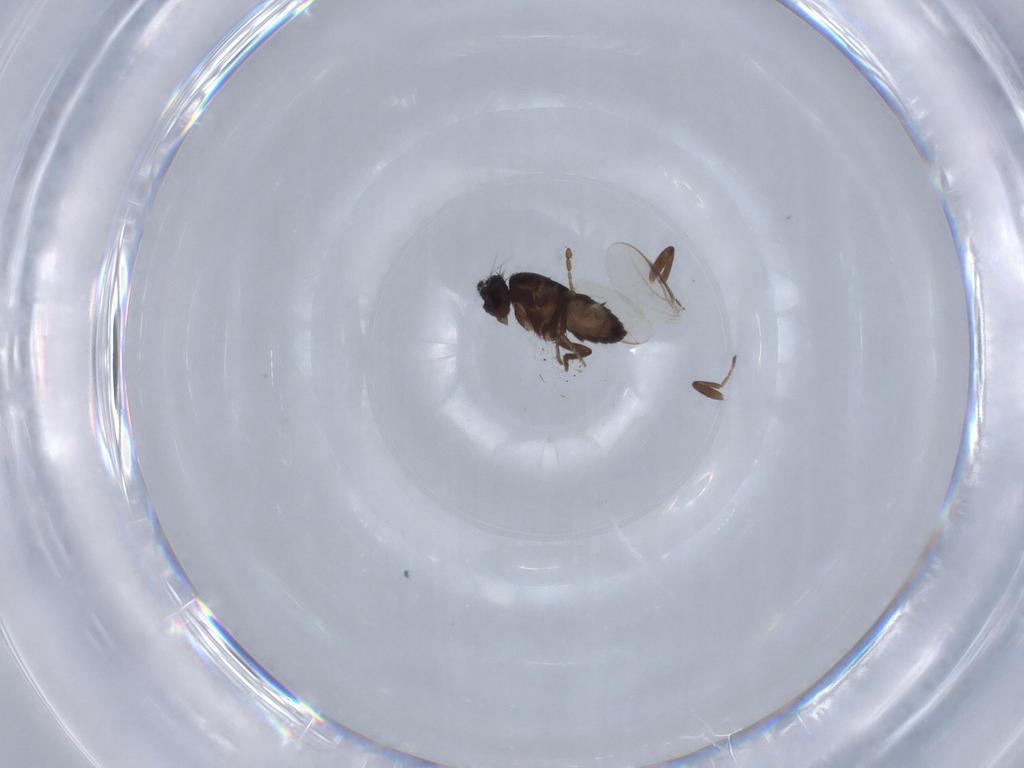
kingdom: Animalia
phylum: Arthropoda
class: Insecta
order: Diptera
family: Sphaeroceridae
